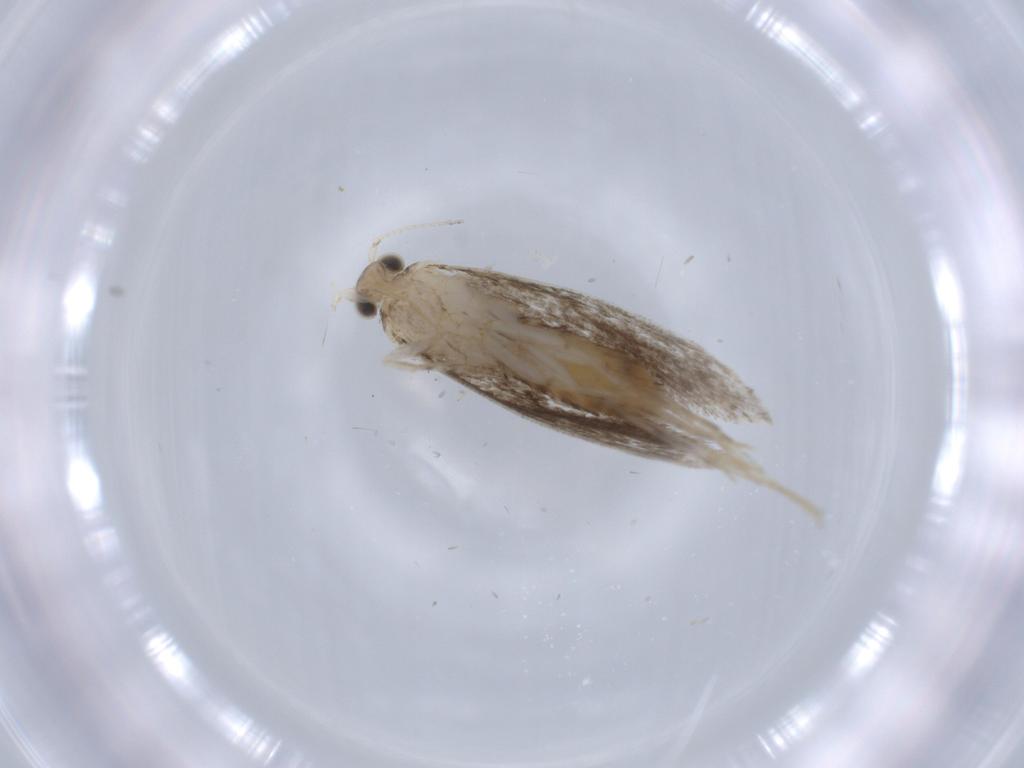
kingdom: Animalia
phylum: Arthropoda
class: Insecta
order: Lepidoptera
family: Tineidae
